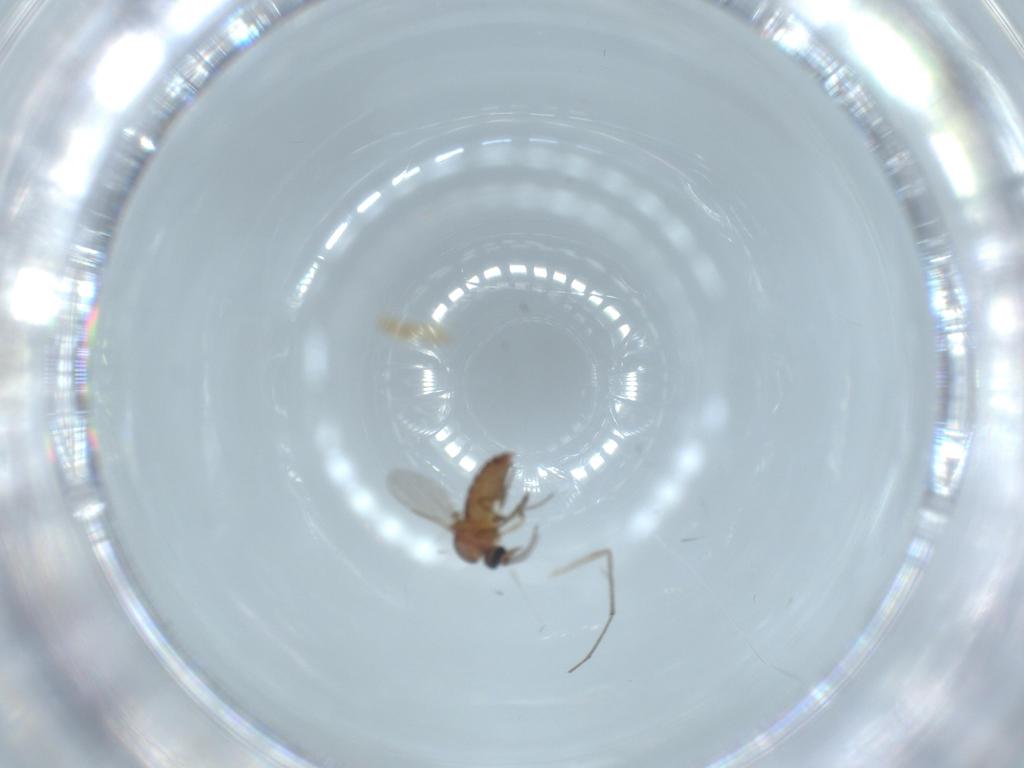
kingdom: Animalia
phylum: Arthropoda
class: Insecta
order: Diptera
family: Ceratopogonidae
